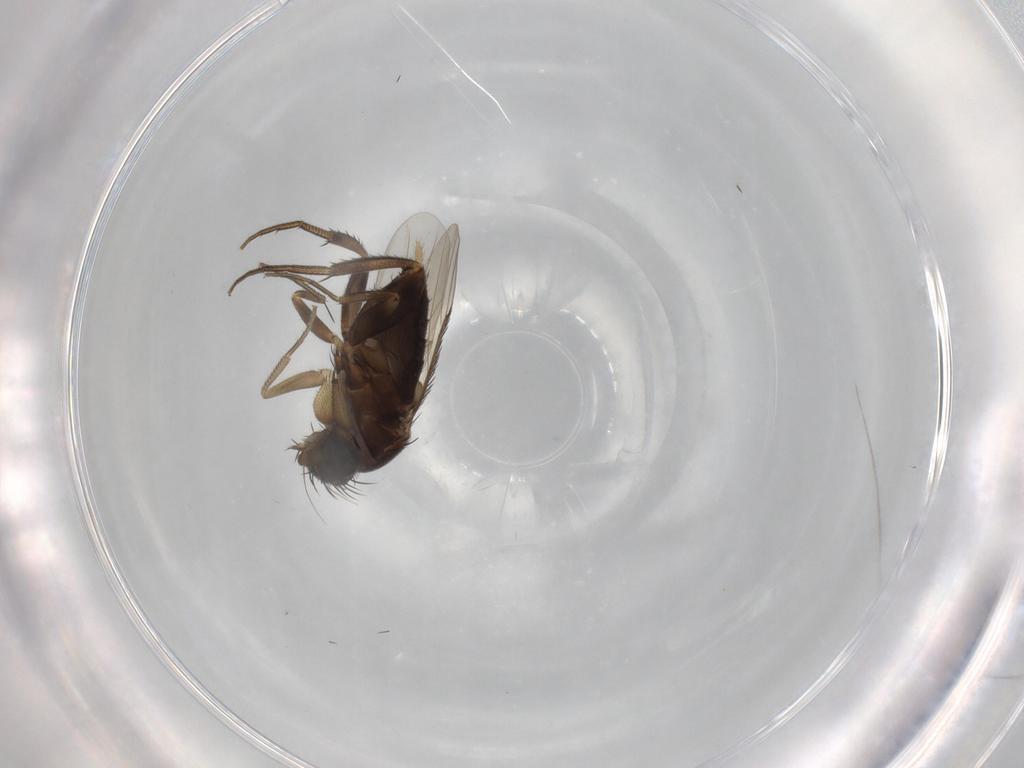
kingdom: Animalia
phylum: Arthropoda
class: Insecta
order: Diptera
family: Phoridae
